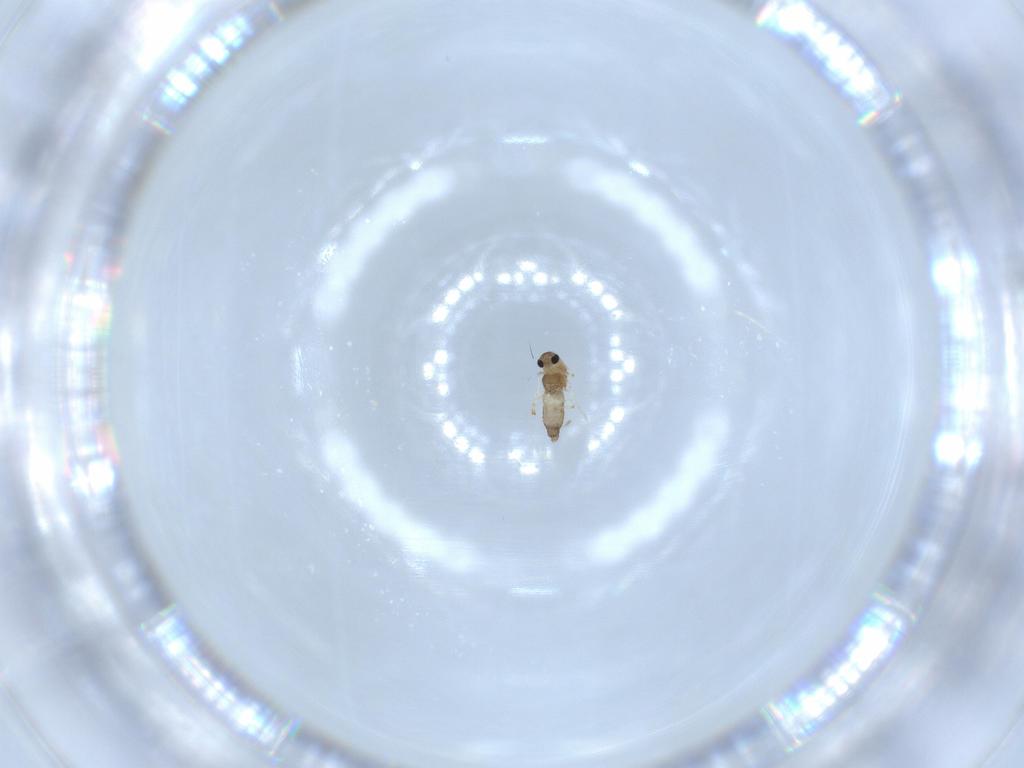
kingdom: Animalia
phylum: Arthropoda
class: Insecta
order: Diptera
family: Chironomidae
